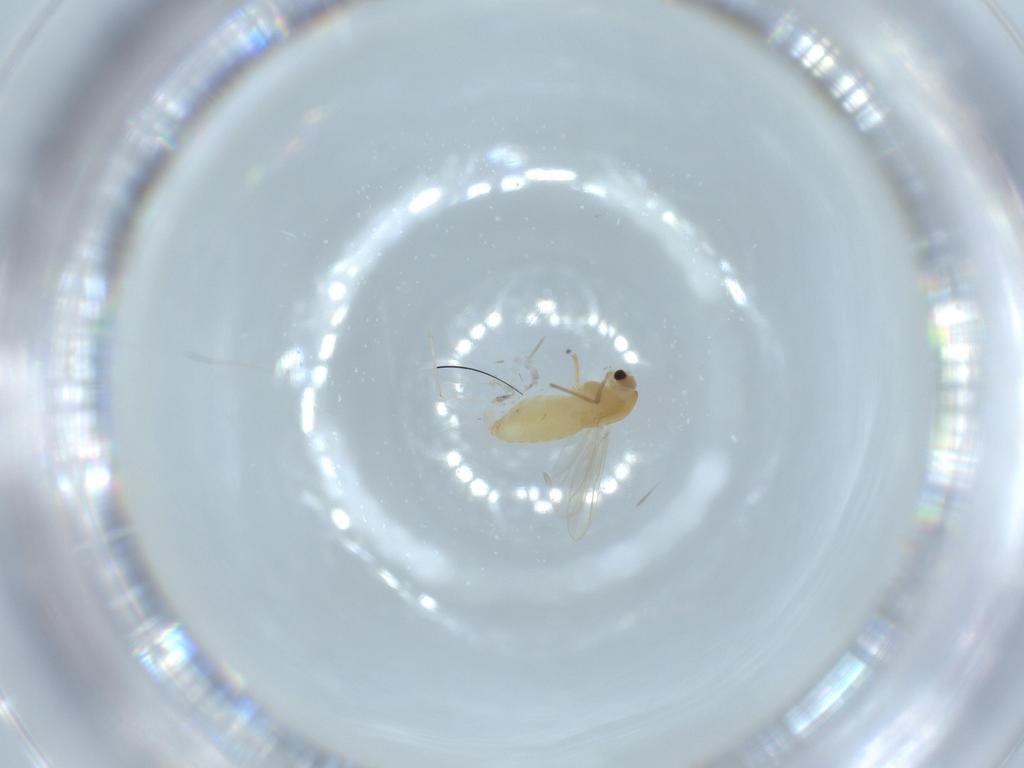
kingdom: Animalia
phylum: Arthropoda
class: Insecta
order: Diptera
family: Chironomidae
